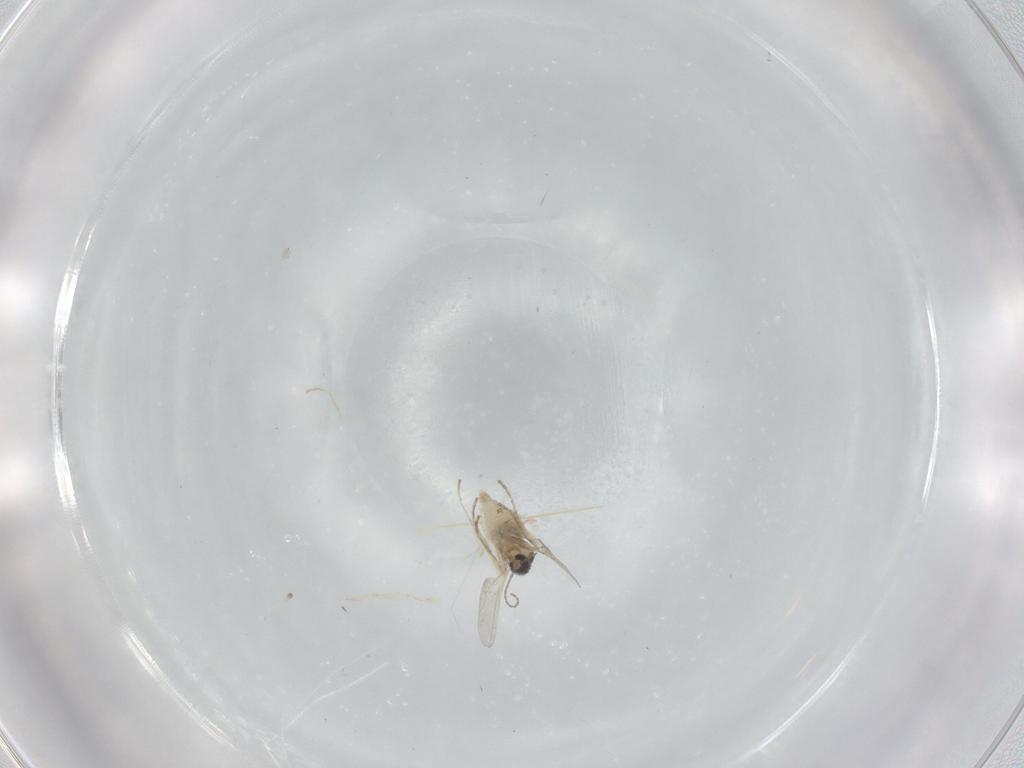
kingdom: Animalia
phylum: Arthropoda
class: Insecta
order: Diptera
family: Cecidomyiidae
